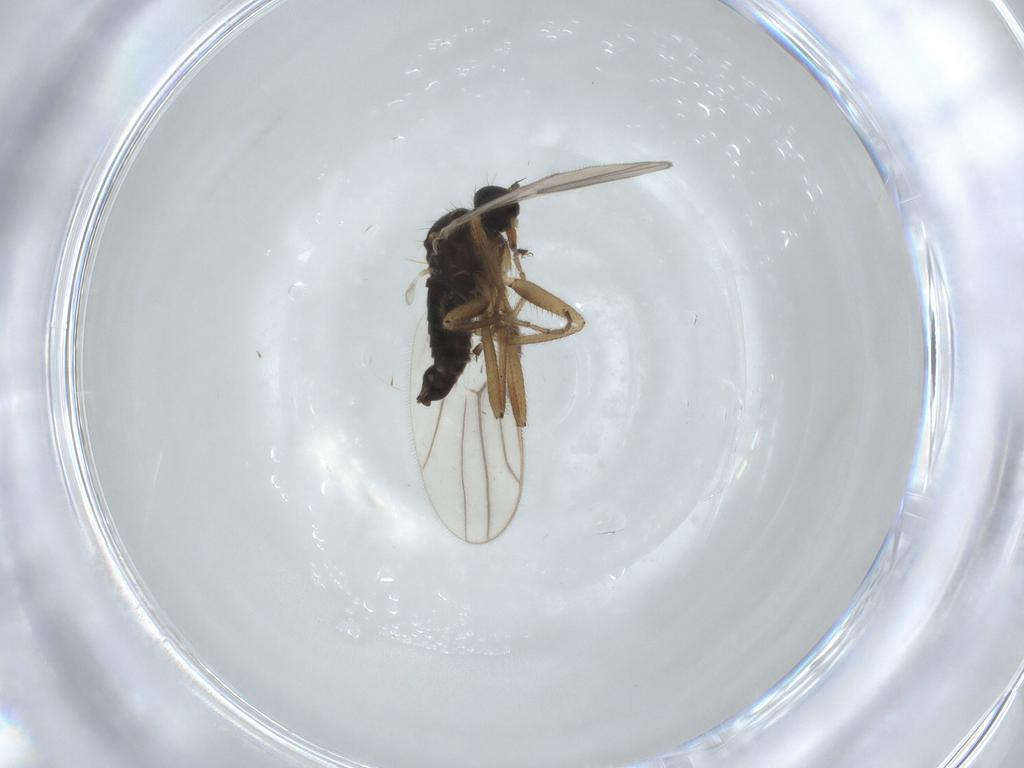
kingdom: Animalia
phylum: Arthropoda
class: Insecta
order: Diptera
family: Hybotidae
